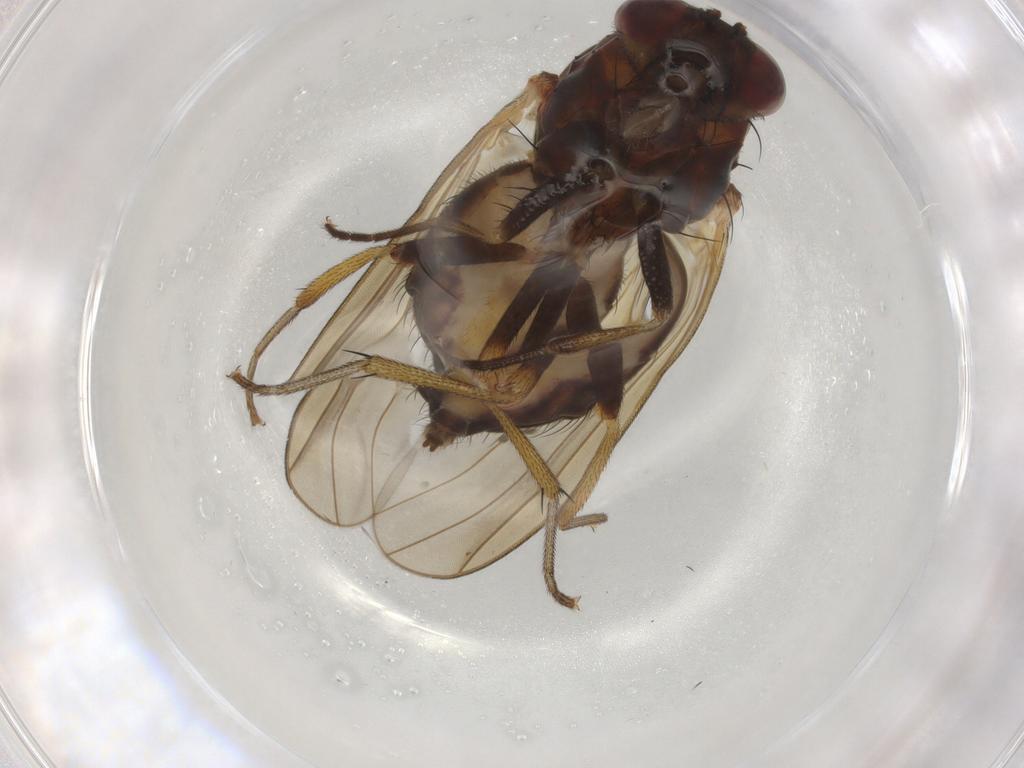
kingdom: Animalia
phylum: Arthropoda
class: Insecta
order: Diptera
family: Lauxaniidae
